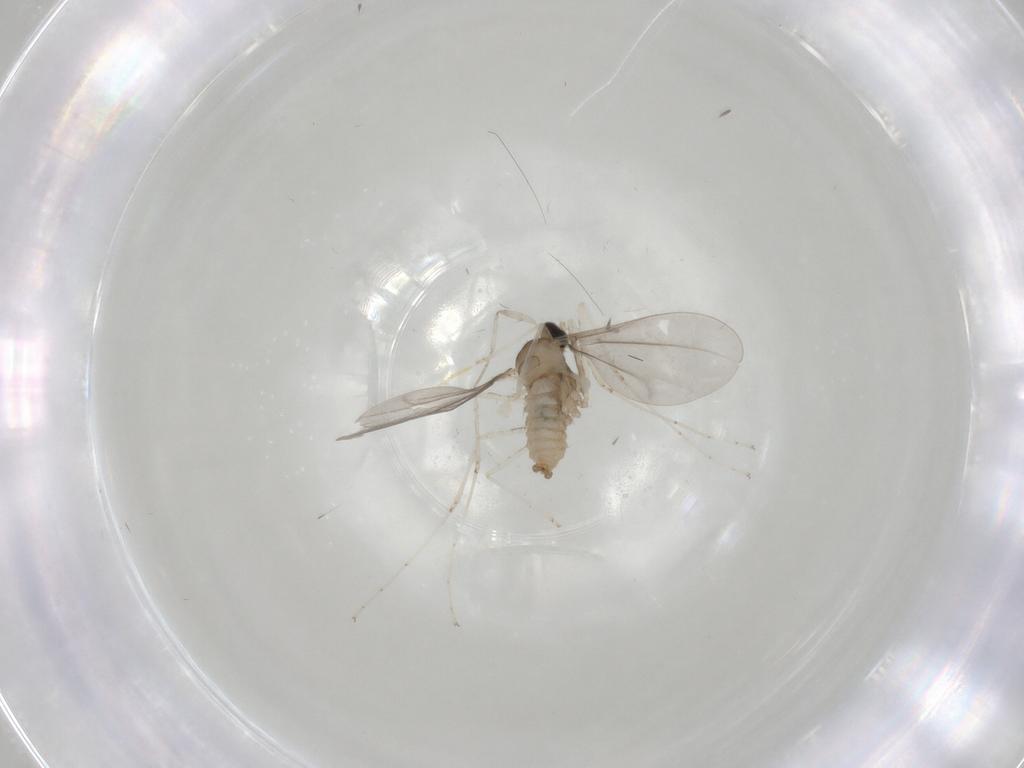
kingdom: Animalia
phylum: Arthropoda
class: Insecta
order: Diptera
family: Cecidomyiidae
